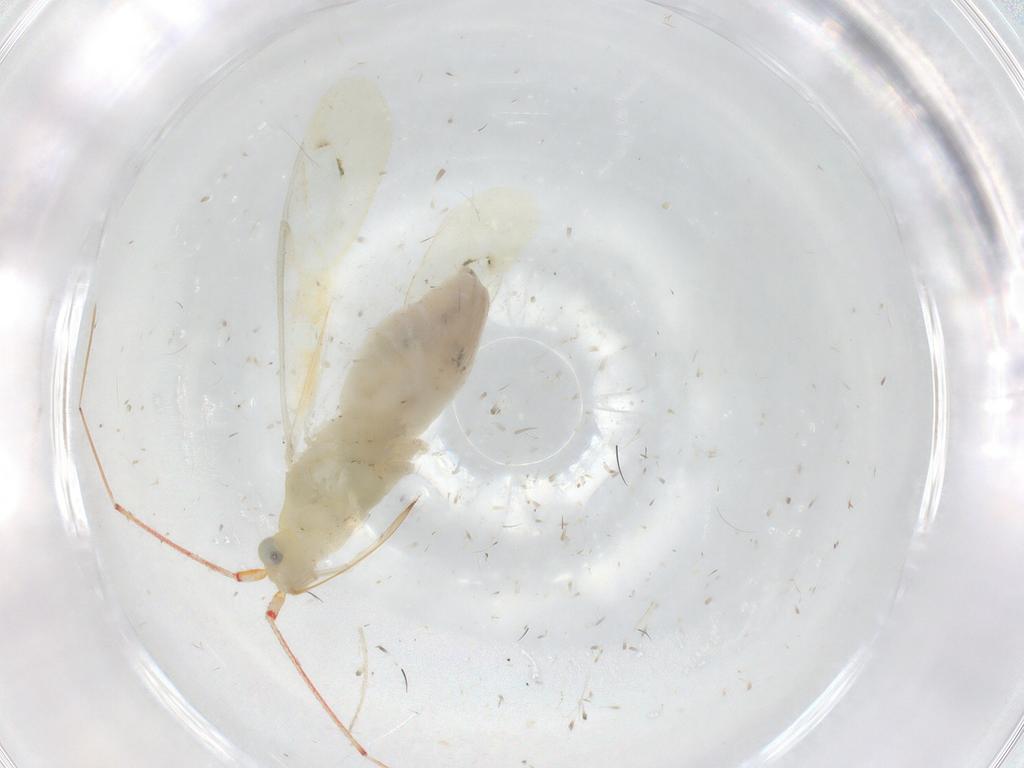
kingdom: Animalia
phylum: Arthropoda
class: Insecta
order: Hemiptera
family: Miridae
